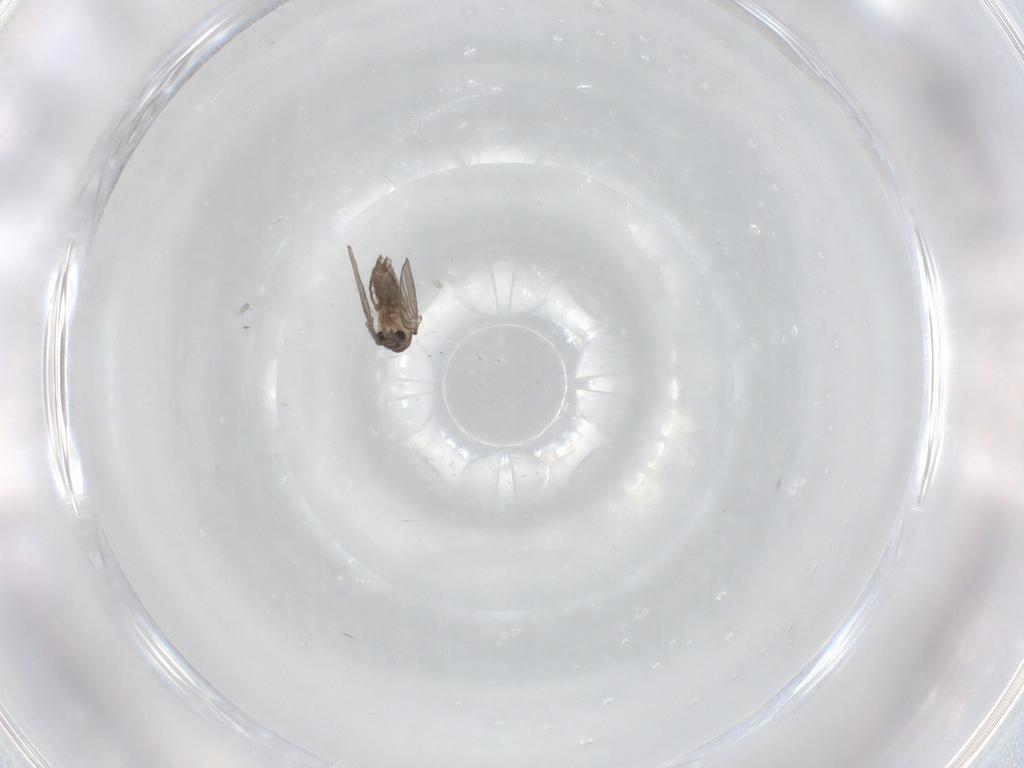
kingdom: Animalia
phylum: Arthropoda
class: Insecta
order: Diptera
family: Psychodidae
